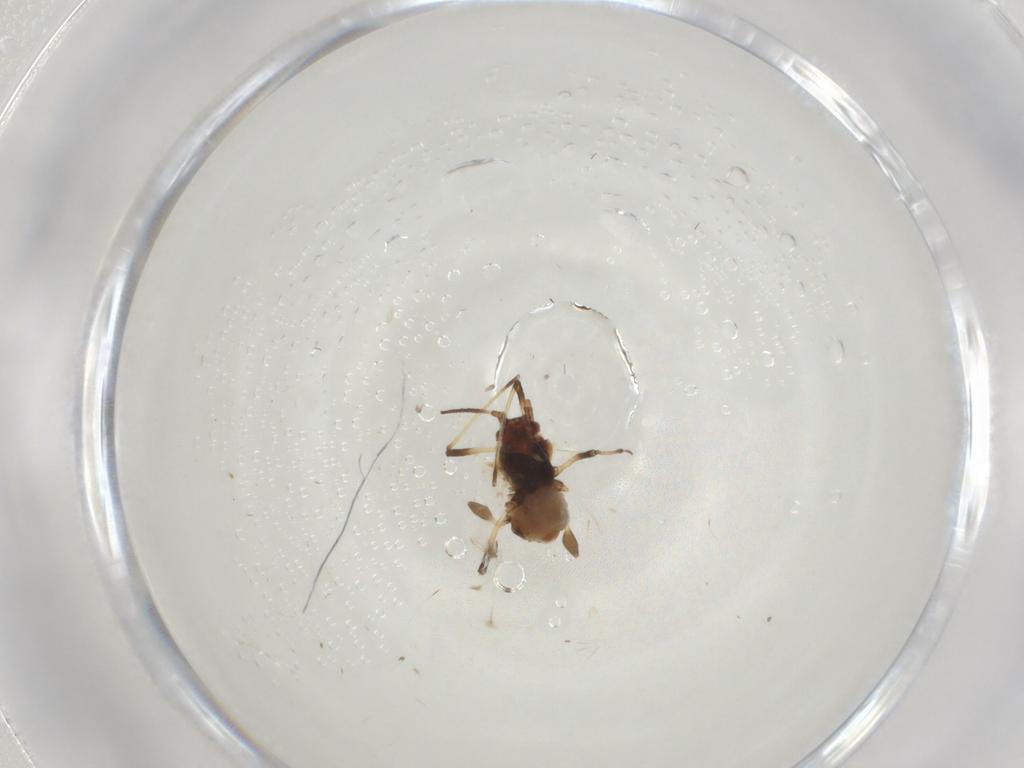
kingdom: Animalia
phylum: Arthropoda
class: Insecta
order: Hemiptera
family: Aphididae
